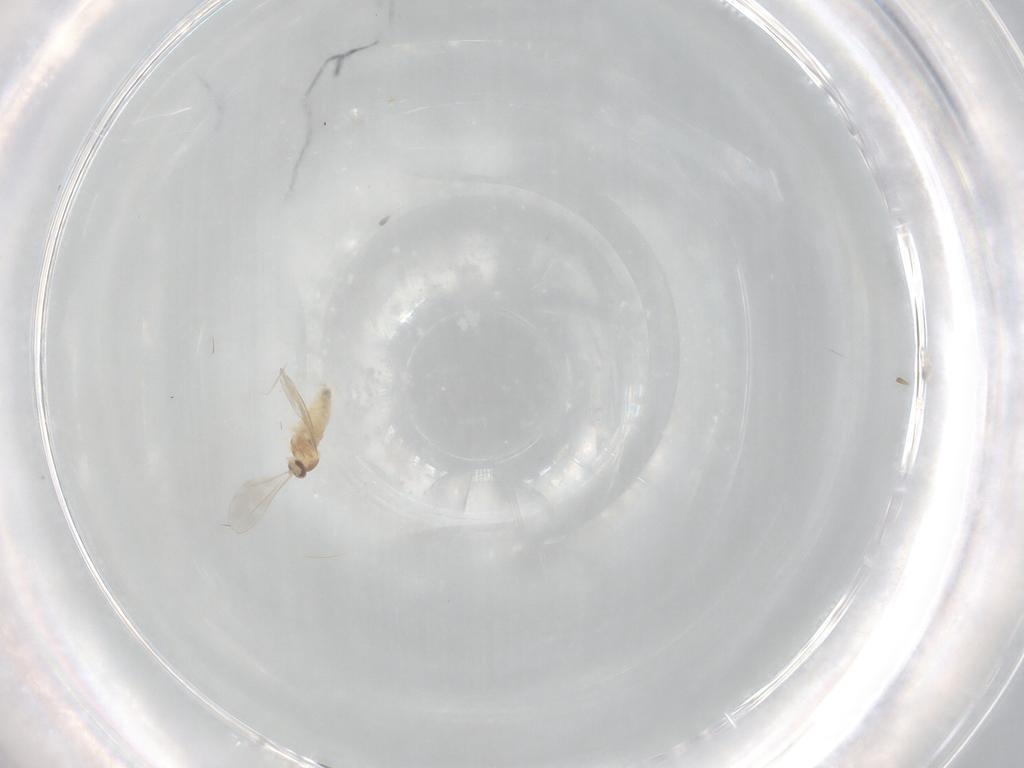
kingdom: Animalia
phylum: Arthropoda
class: Insecta
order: Diptera
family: Cecidomyiidae
